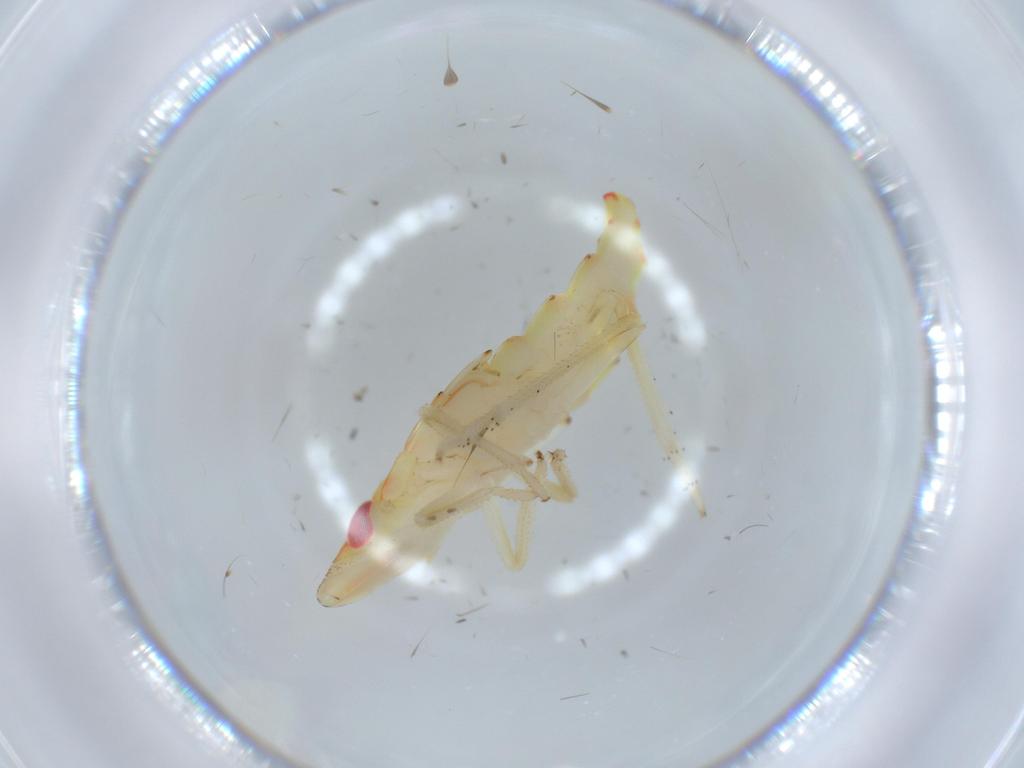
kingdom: Animalia
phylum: Arthropoda
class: Insecta
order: Hemiptera
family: Tropiduchidae
